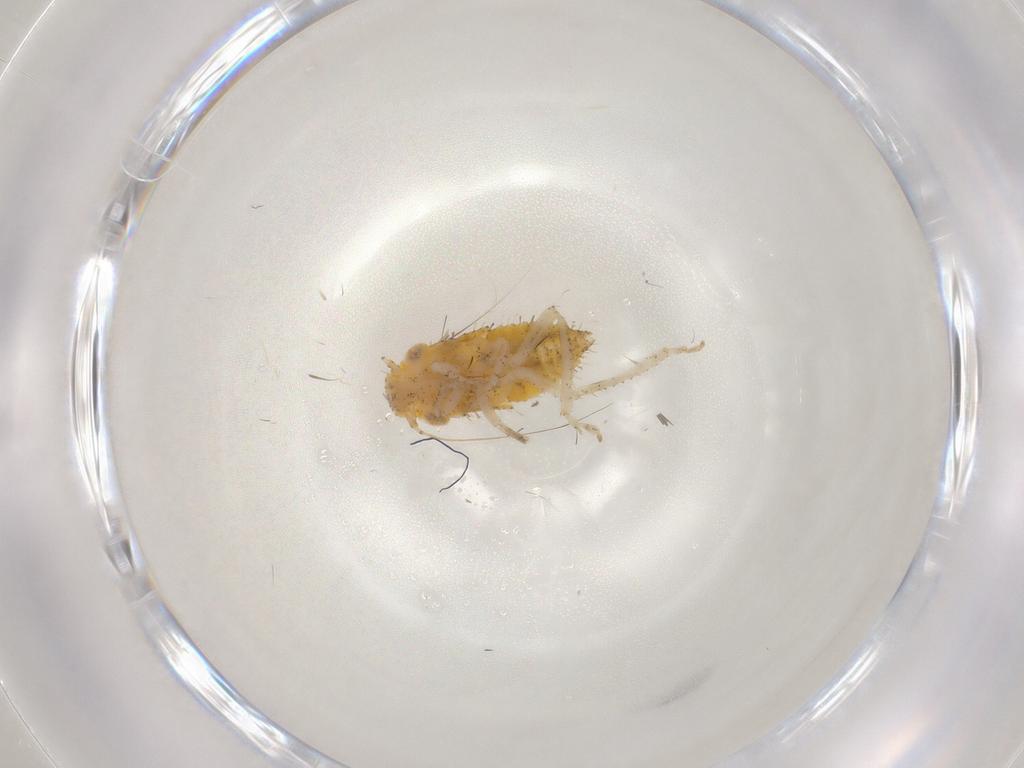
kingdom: Animalia
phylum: Arthropoda
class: Insecta
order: Hemiptera
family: Cicadellidae
